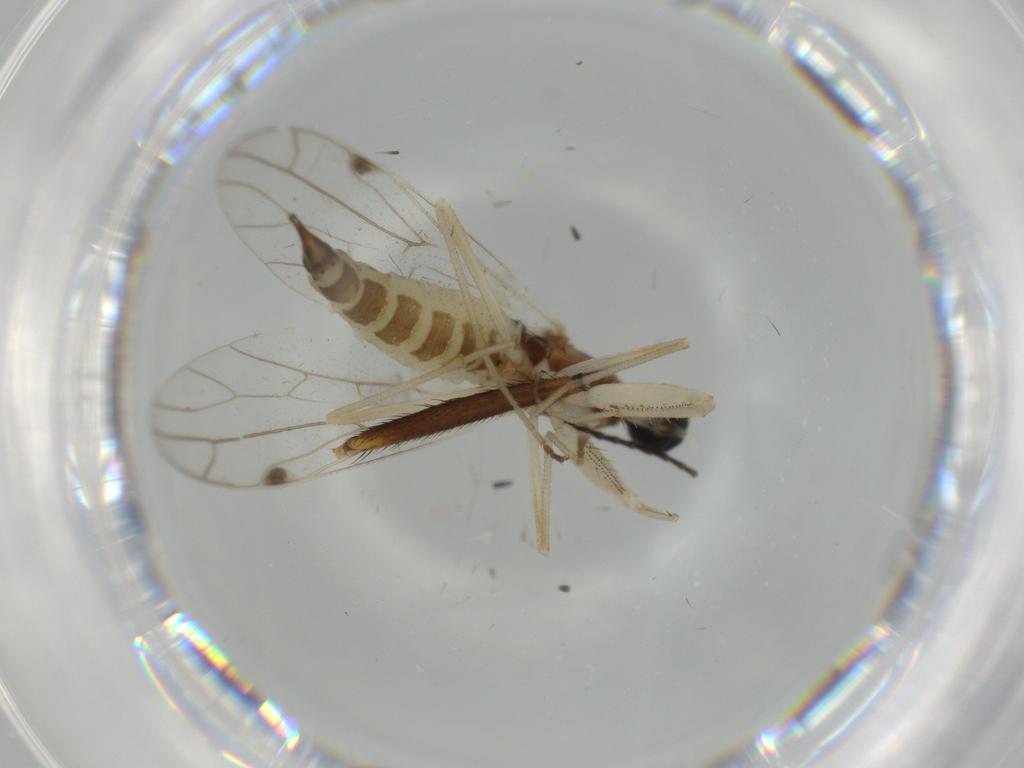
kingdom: Animalia
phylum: Arthropoda
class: Insecta
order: Diptera
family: Empididae
